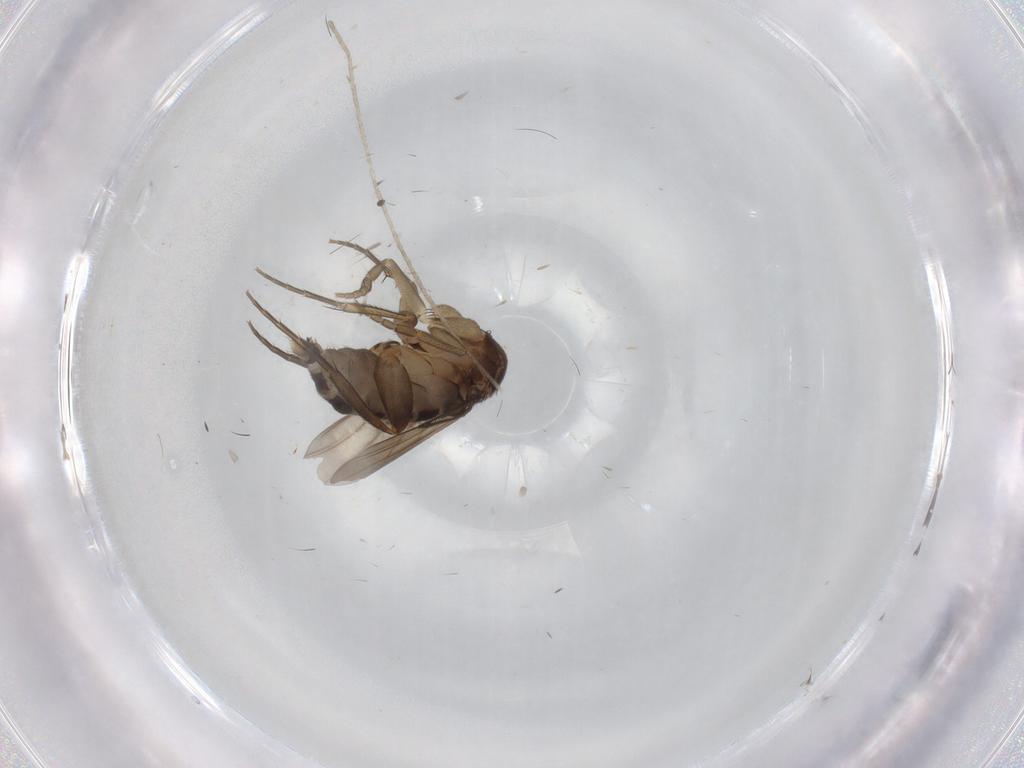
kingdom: Animalia
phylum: Arthropoda
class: Insecta
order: Diptera
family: Phoridae
